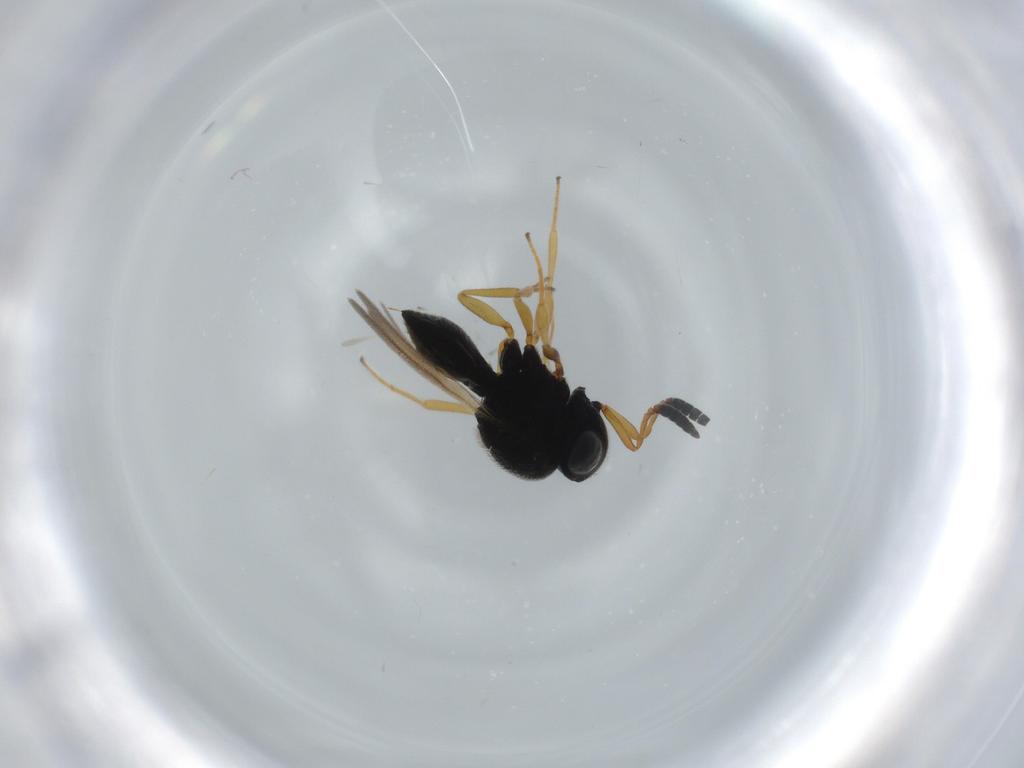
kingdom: Animalia
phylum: Arthropoda
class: Insecta
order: Hymenoptera
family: Scelionidae
